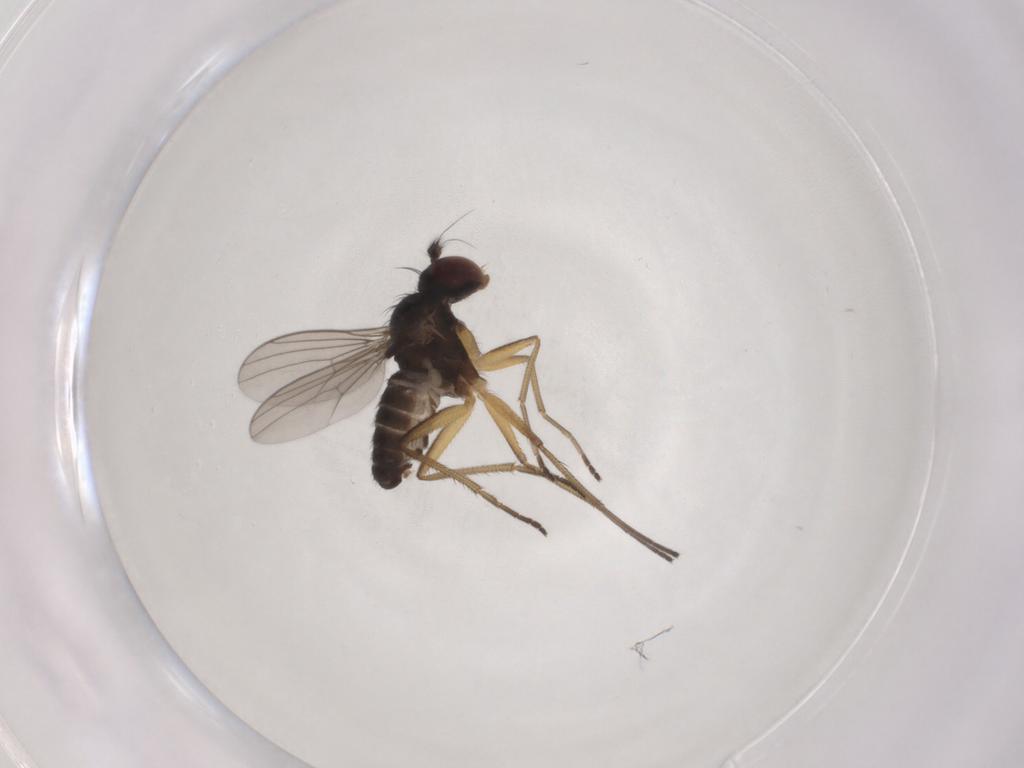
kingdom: Animalia
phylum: Arthropoda
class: Insecta
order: Diptera
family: Dolichopodidae
